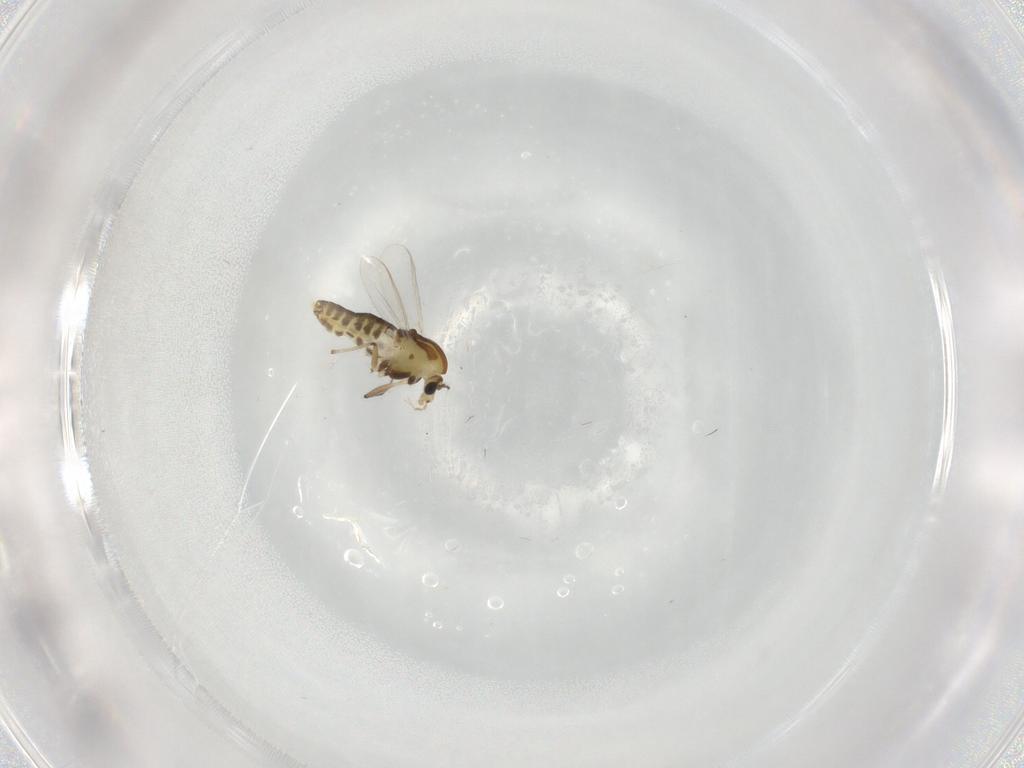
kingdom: Animalia
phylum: Arthropoda
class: Insecta
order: Diptera
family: Chironomidae
